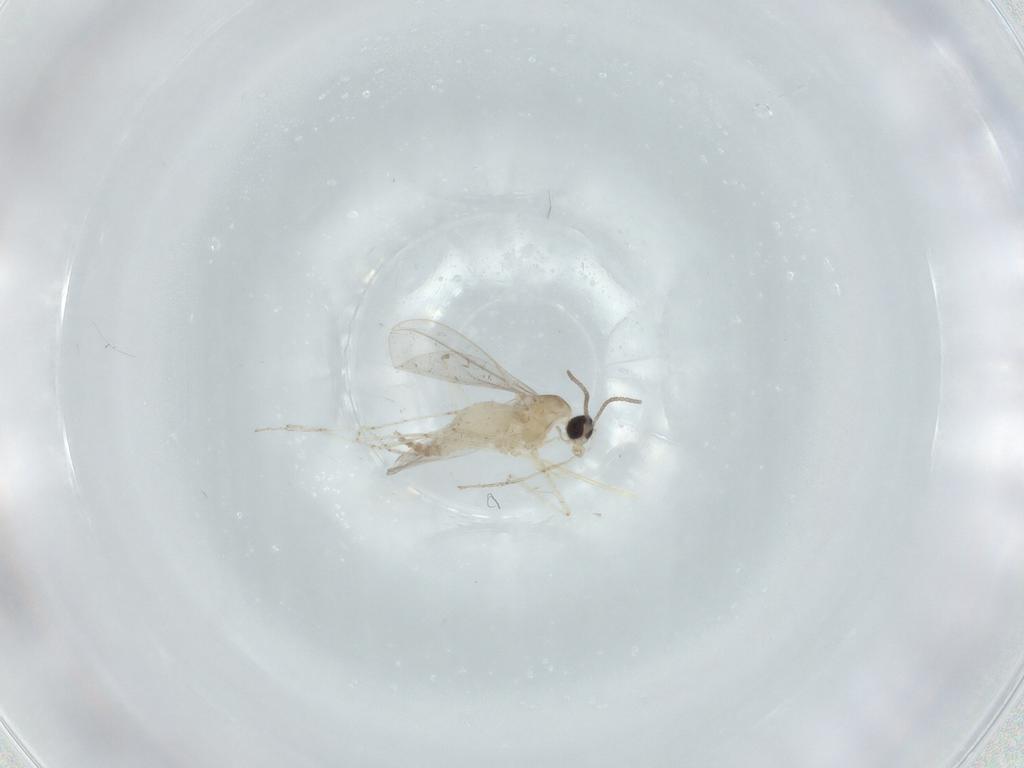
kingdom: Animalia
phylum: Arthropoda
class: Insecta
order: Diptera
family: Cecidomyiidae
